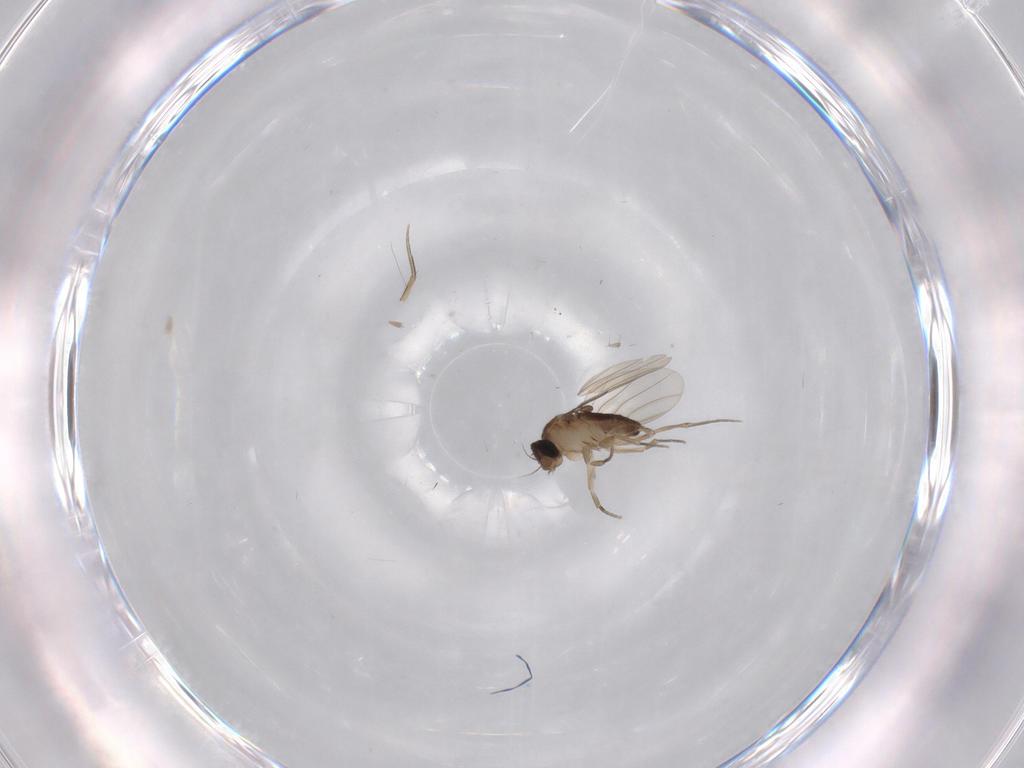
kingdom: Animalia
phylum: Arthropoda
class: Insecta
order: Diptera
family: Phoridae
